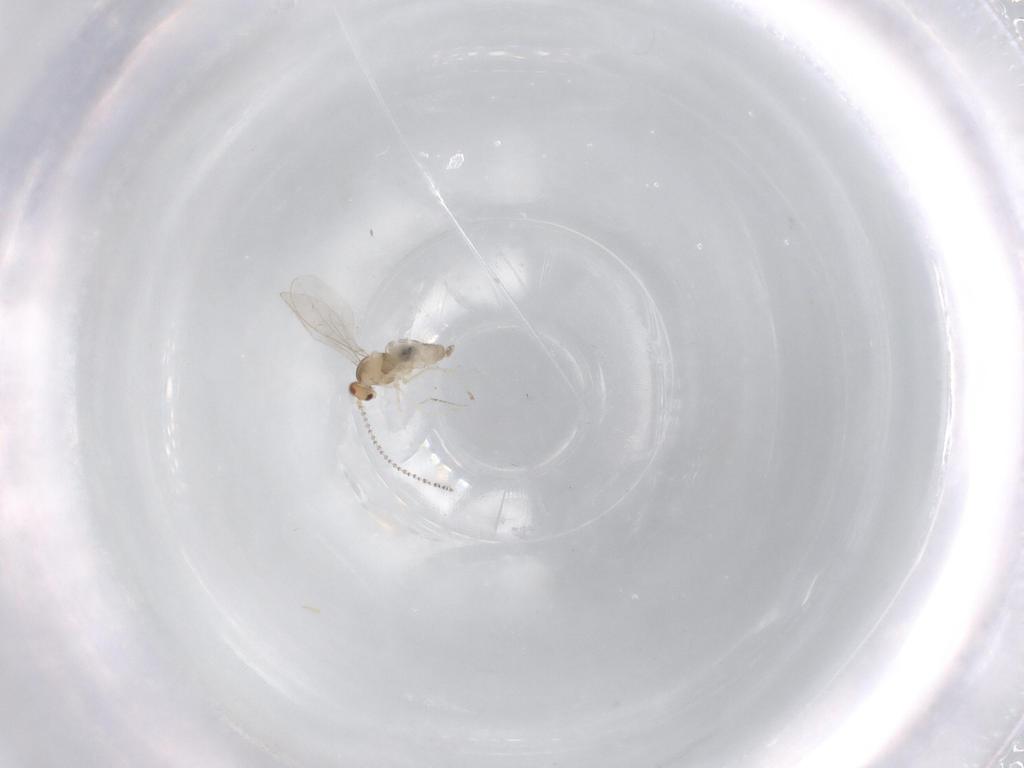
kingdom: Animalia
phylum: Arthropoda
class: Insecta
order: Diptera
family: Cecidomyiidae
